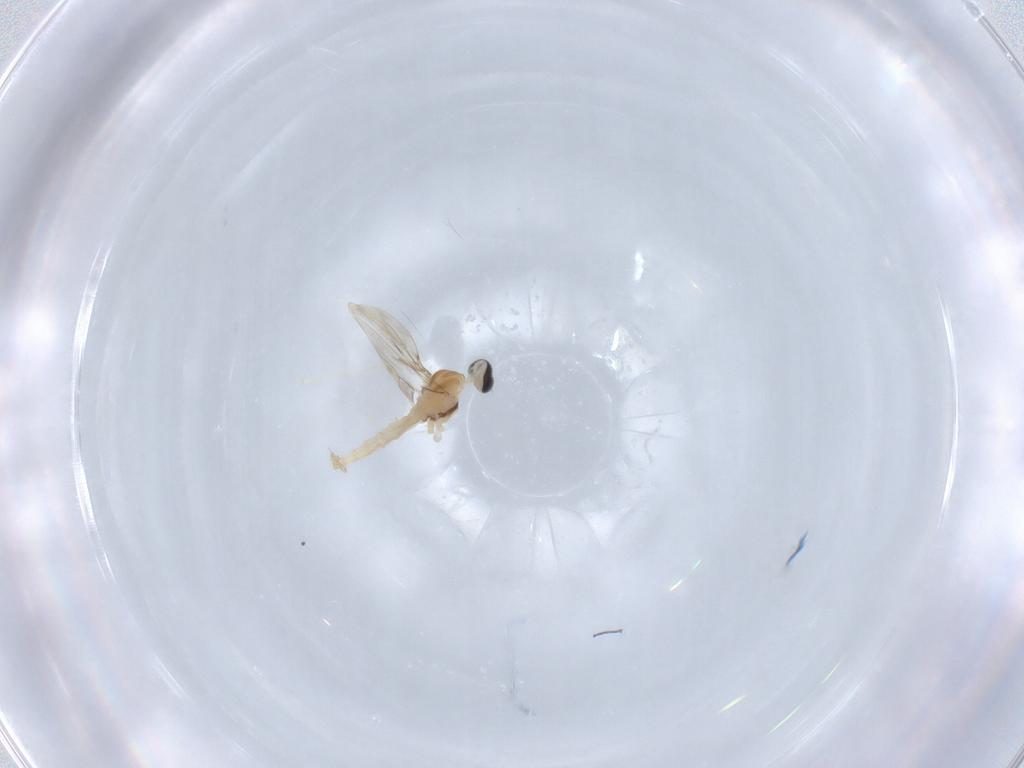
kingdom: Animalia
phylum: Arthropoda
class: Insecta
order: Diptera
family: Cecidomyiidae
